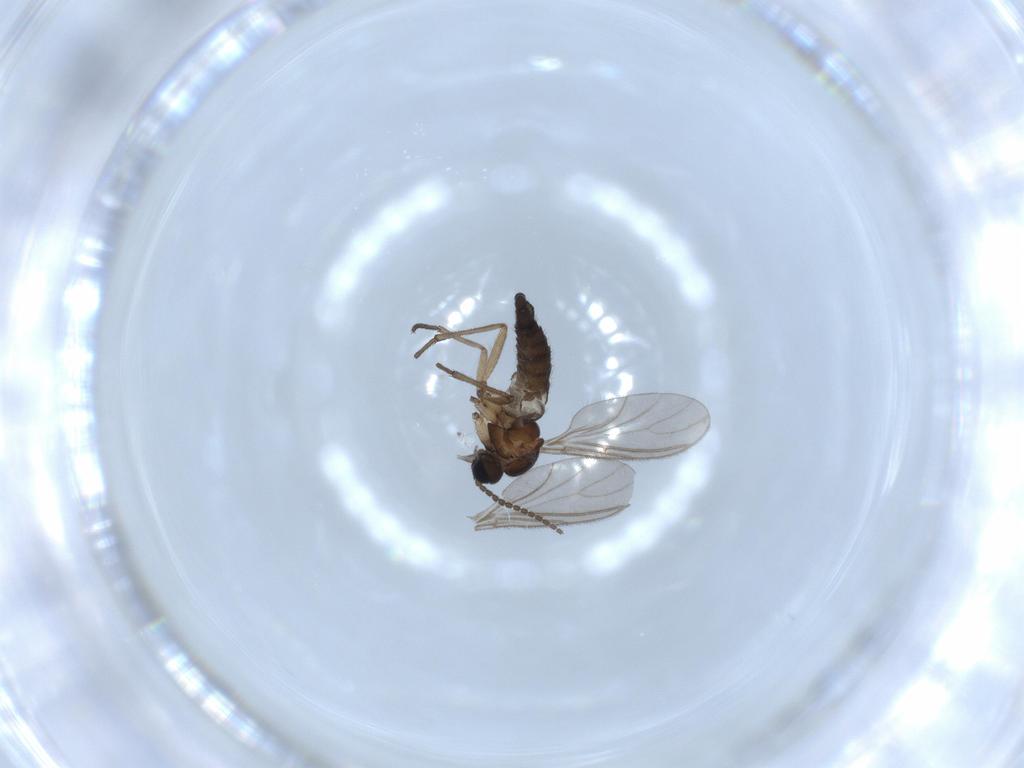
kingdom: Animalia
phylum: Arthropoda
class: Insecta
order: Diptera
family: Sciaridae
